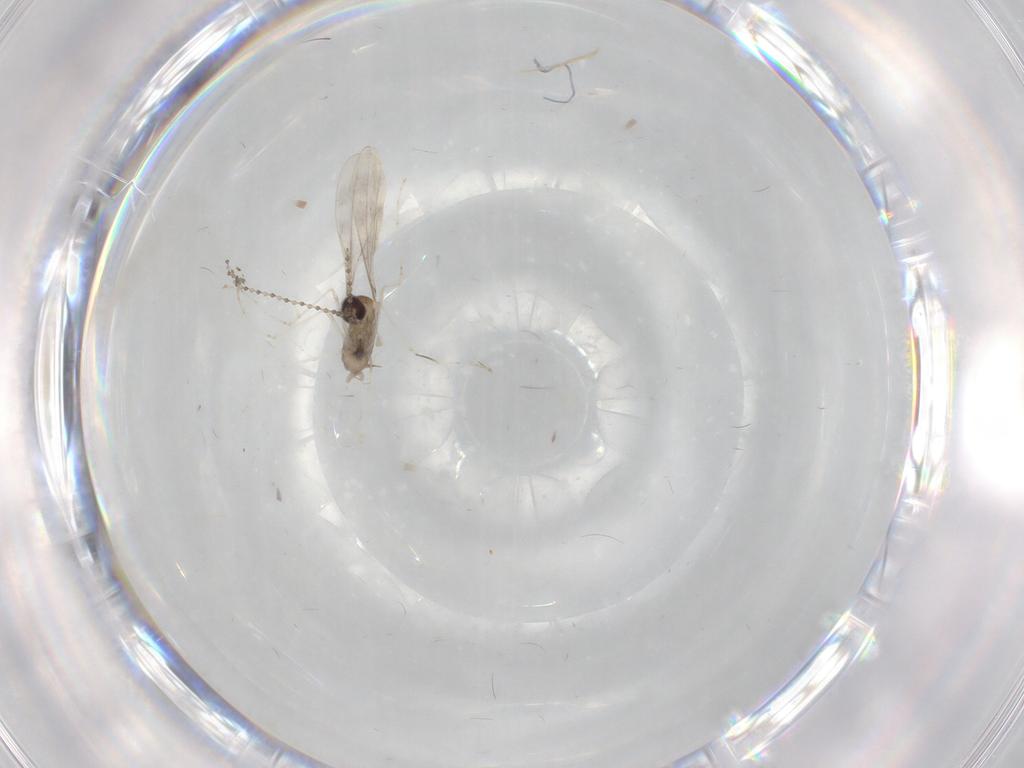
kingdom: Animalia
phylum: Arthropoda
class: Insecta
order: Diptera
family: Cecidomyiidae
